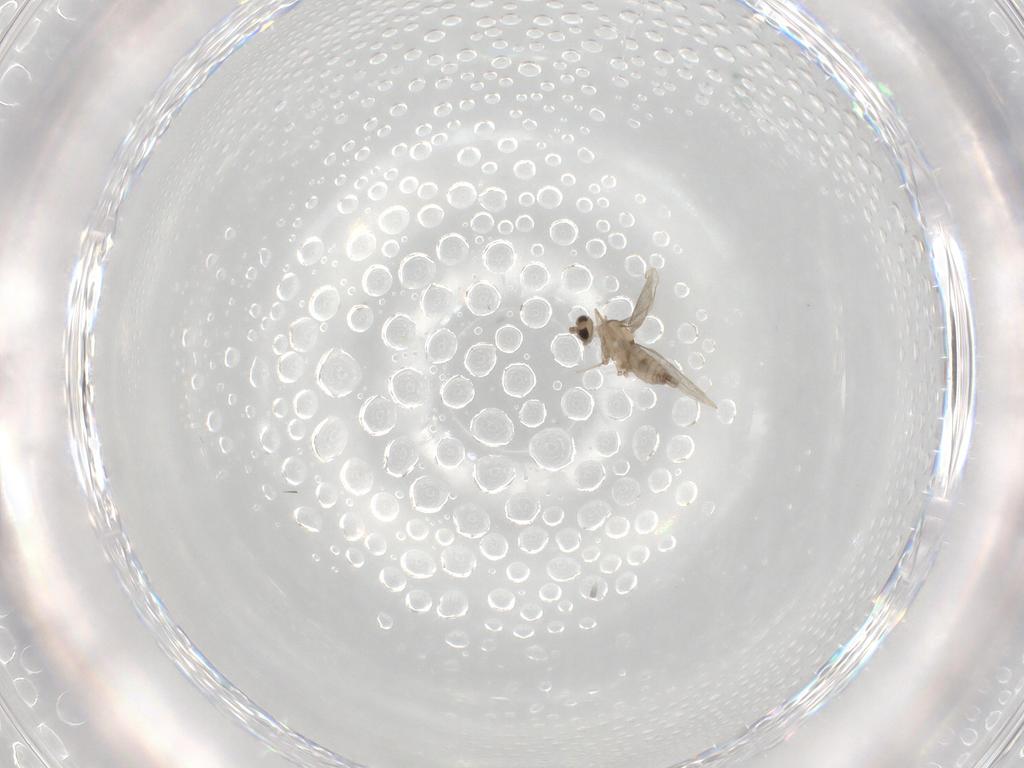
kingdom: Animalia
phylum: Arthropoda
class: Insecta
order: Diptera
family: Cecidomyiidae
